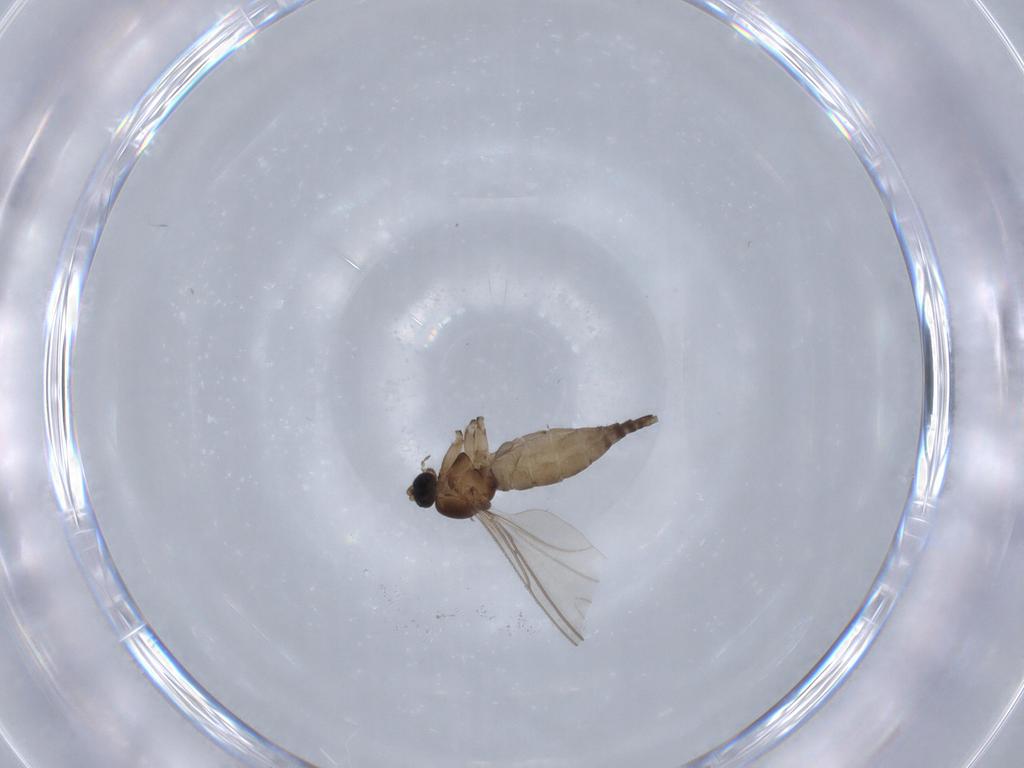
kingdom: Animalia
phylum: Arthropoda
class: Insecta
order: Diptera
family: Sciaridae
